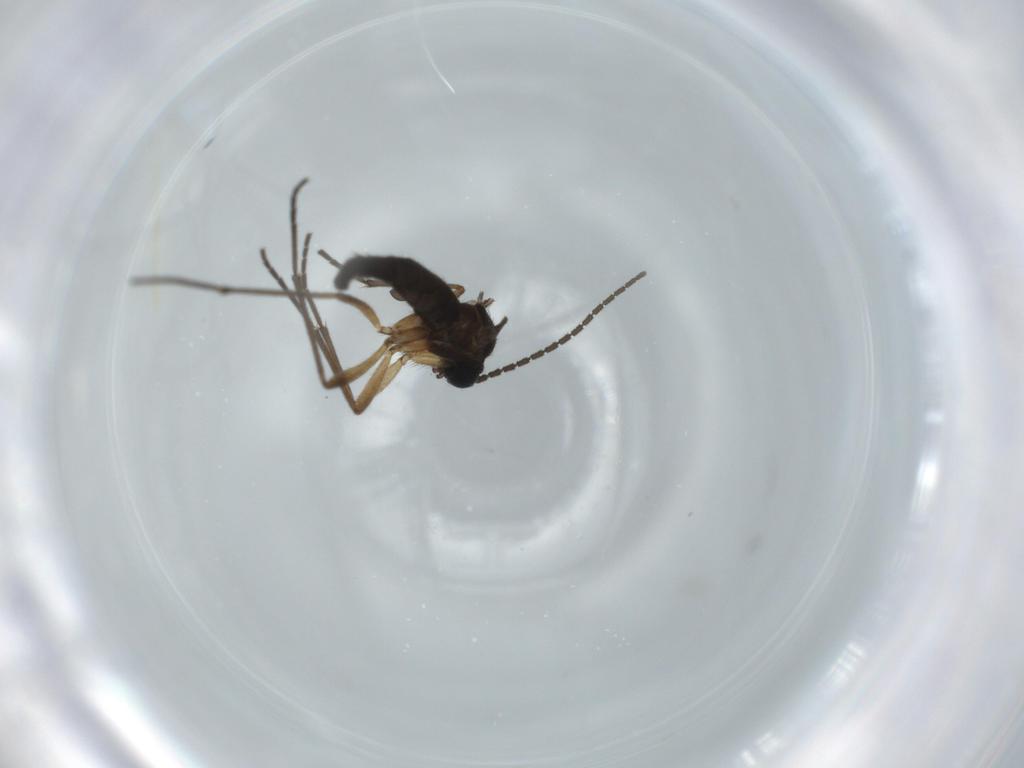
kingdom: Animalia
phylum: Arthropoda
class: Insecta
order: Diptera
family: Sciaridae
